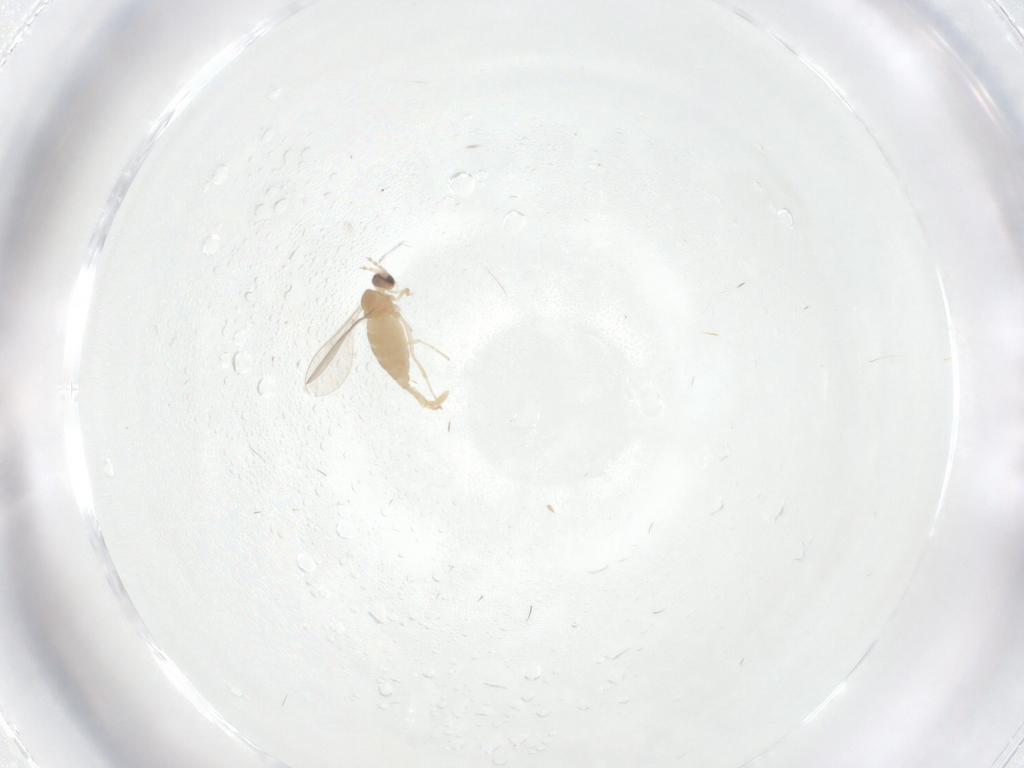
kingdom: Animalia
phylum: Arthropoda
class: Insecta
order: Diptera
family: Cecidomyiidae
